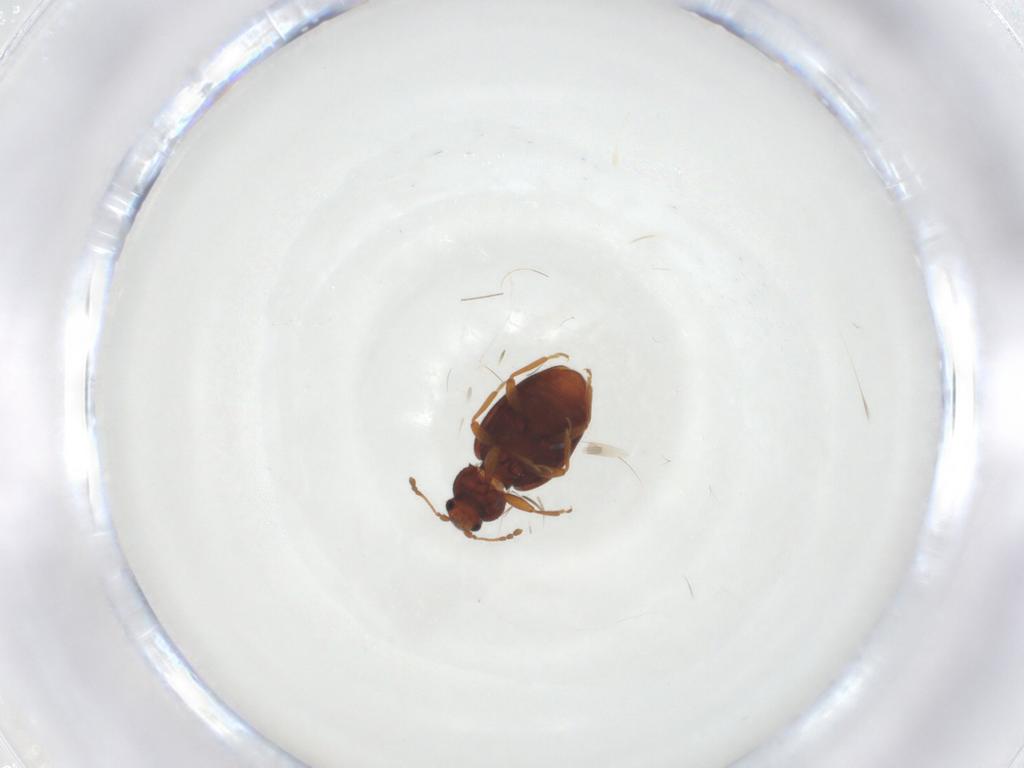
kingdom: Animalia
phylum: Arthropoda
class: Insecta
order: Coleoptera
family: Latridiidae
